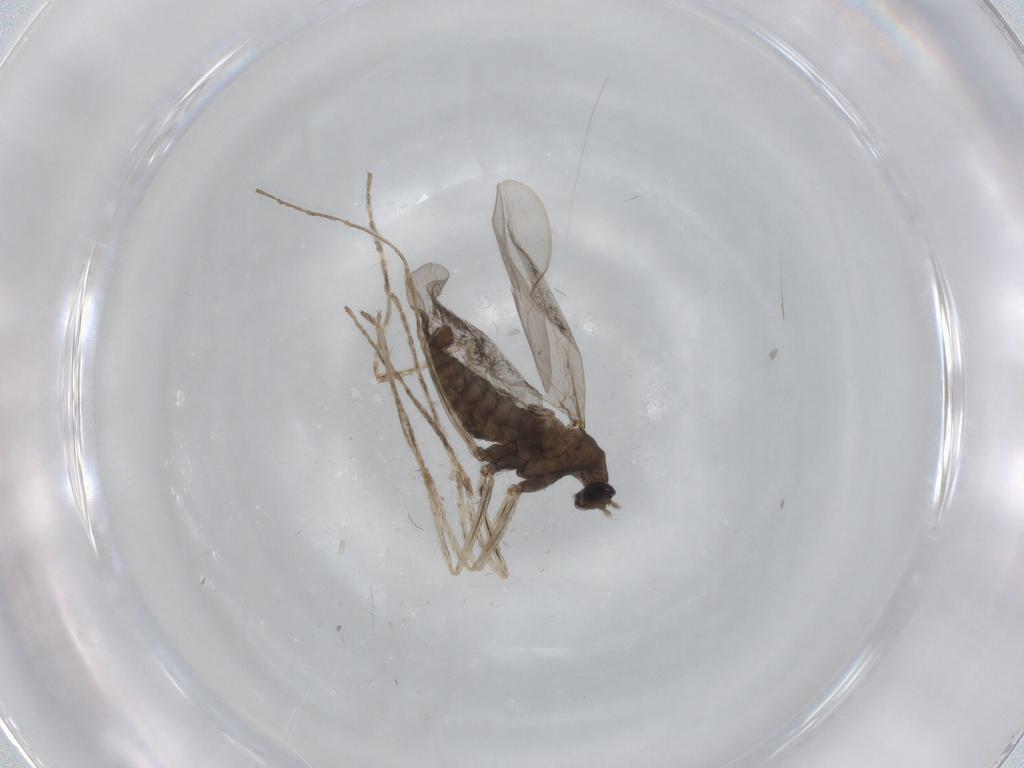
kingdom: Animalia
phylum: Arthropoda
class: Insecta
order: Diptera
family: Cecidomyiidae
